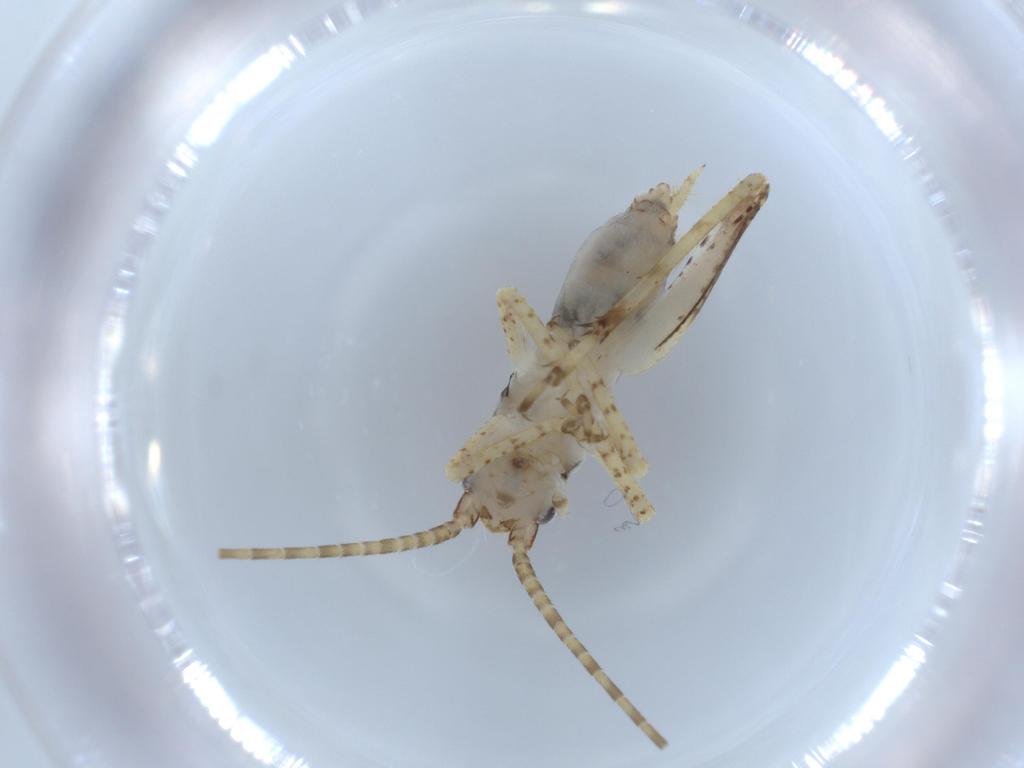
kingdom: Animalia
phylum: Arthropoda
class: Insecta
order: Orthoptera
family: Gryllidae
